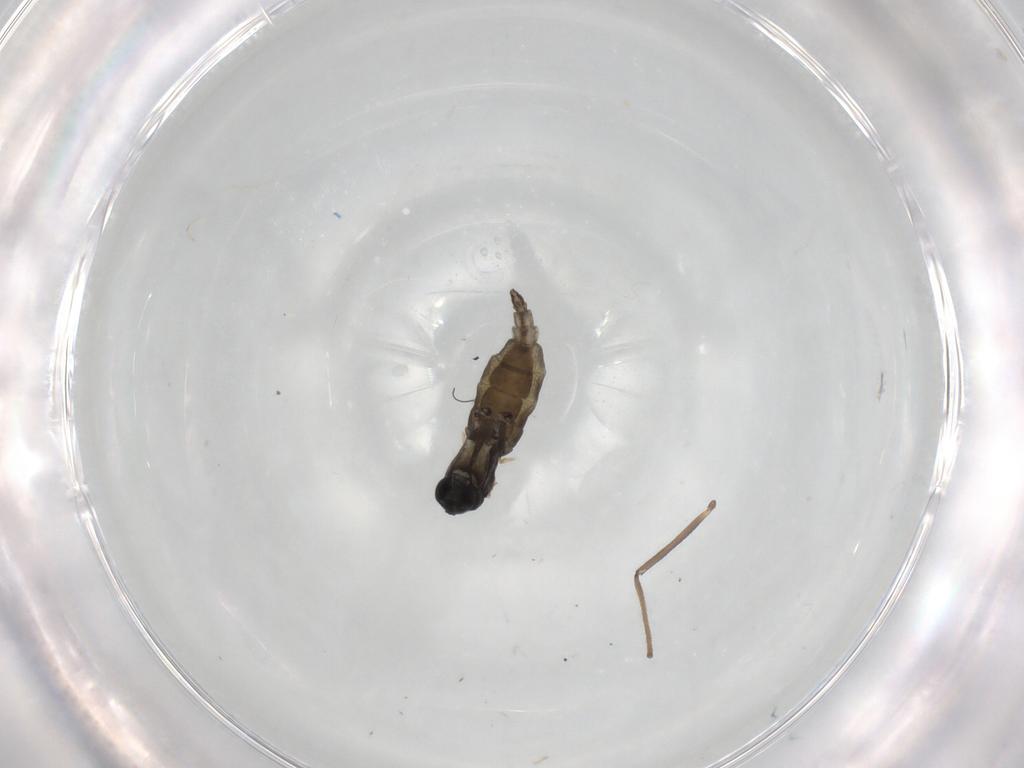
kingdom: Animalia
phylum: Arthropoda
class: Insecta
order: Diptera
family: Chironomidae
